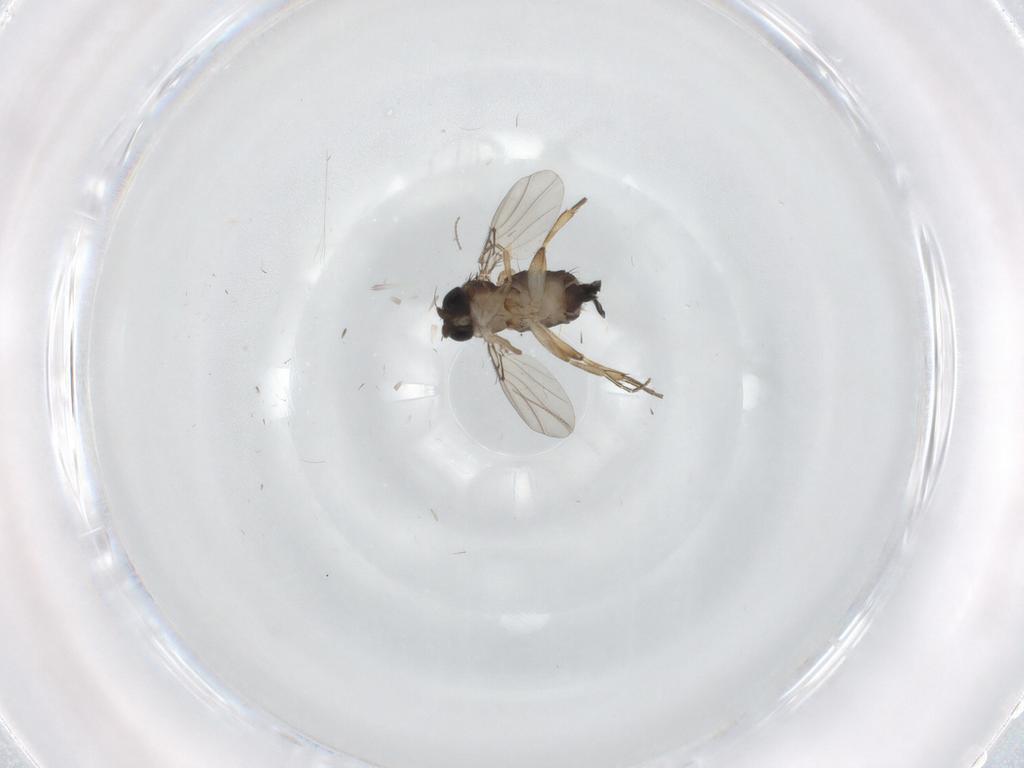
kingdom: Animalia
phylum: Arthropoda
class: Insecta
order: Diptera
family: Phoridae
